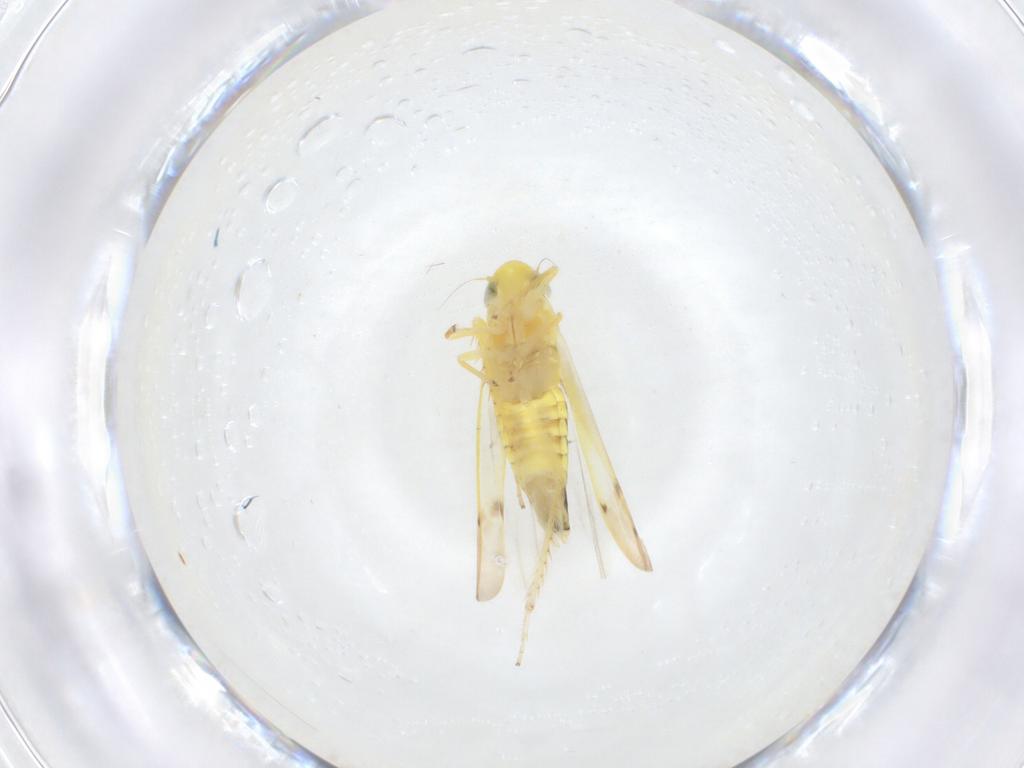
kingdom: Animalia
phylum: Arthropoda
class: Insecta
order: Hemiptera
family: Cicadellidae
